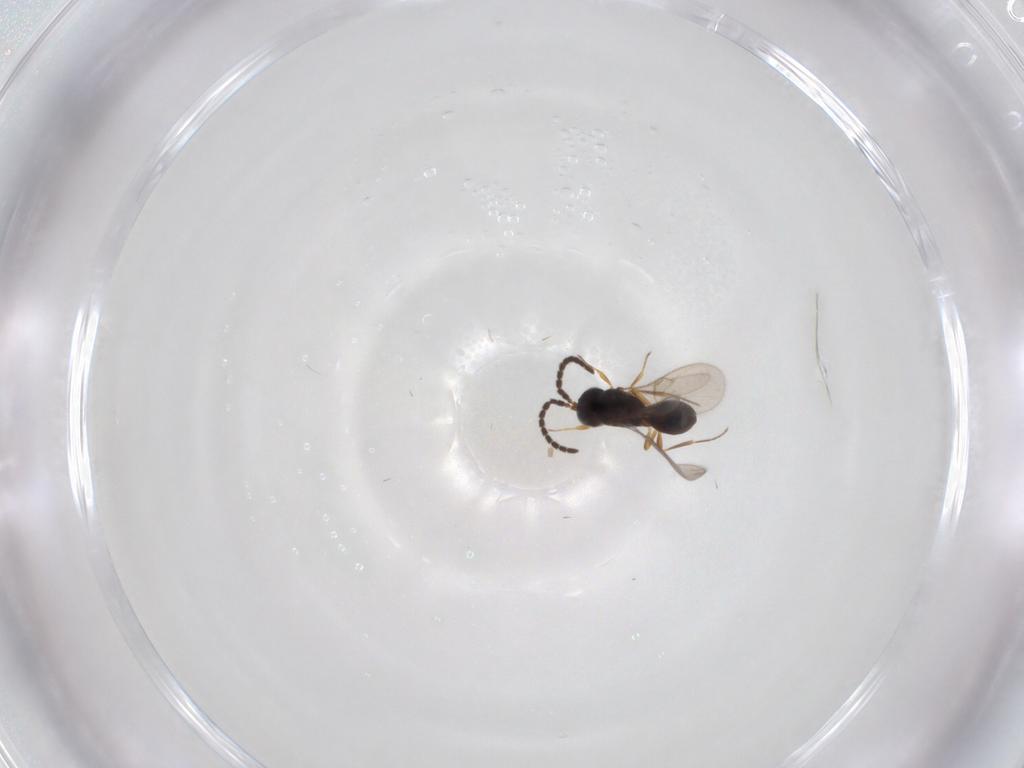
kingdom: Animalia
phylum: Arthropoda
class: Insecta
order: Hymenoptera
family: Scelionidae
